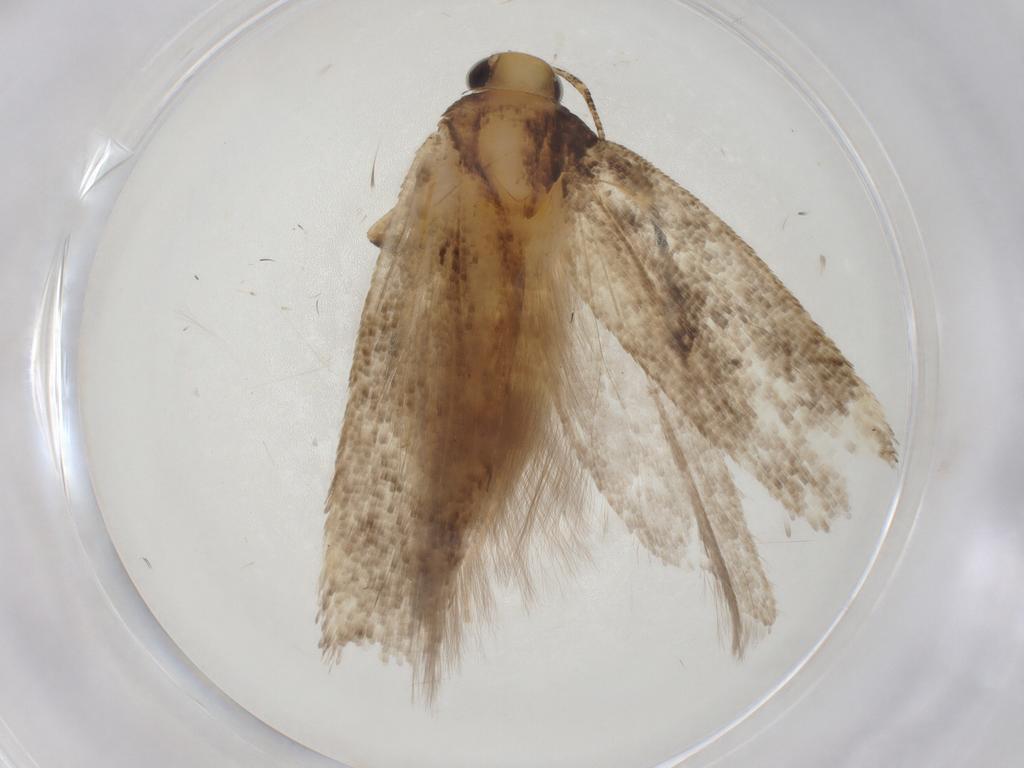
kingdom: Animalia
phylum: Arthropoda
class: Insecta
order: Lepidoptera
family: Gelechiidae
